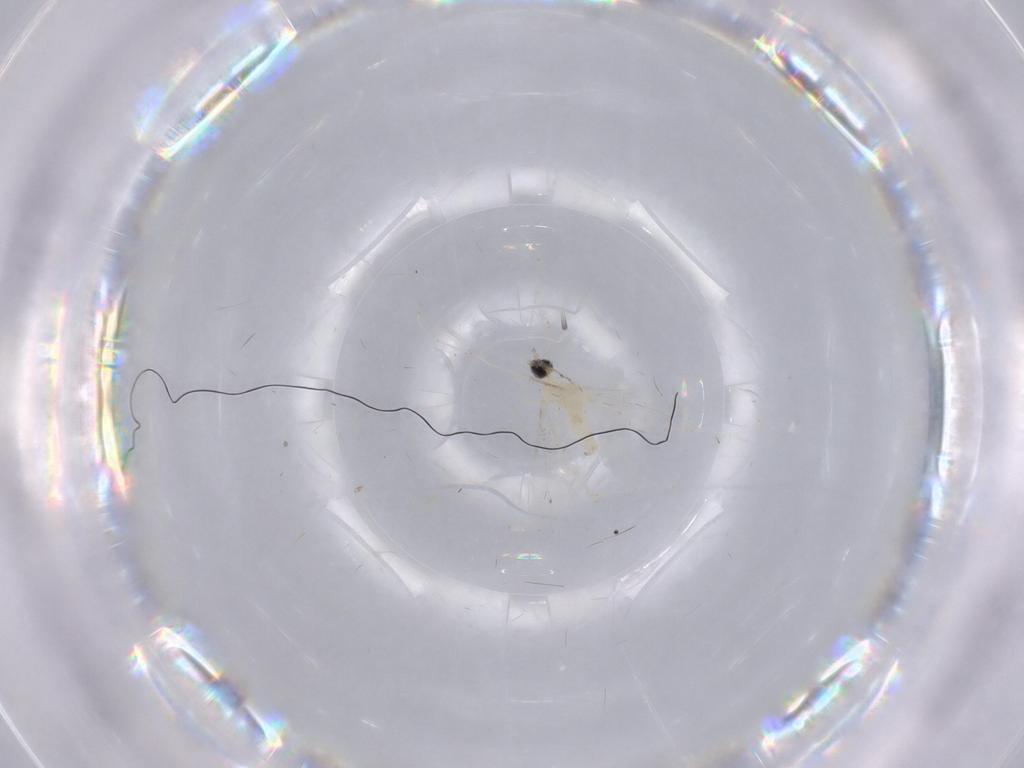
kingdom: Animalia
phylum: Arthropoda
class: Insecta
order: Diptera
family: Cecidomyiidae
